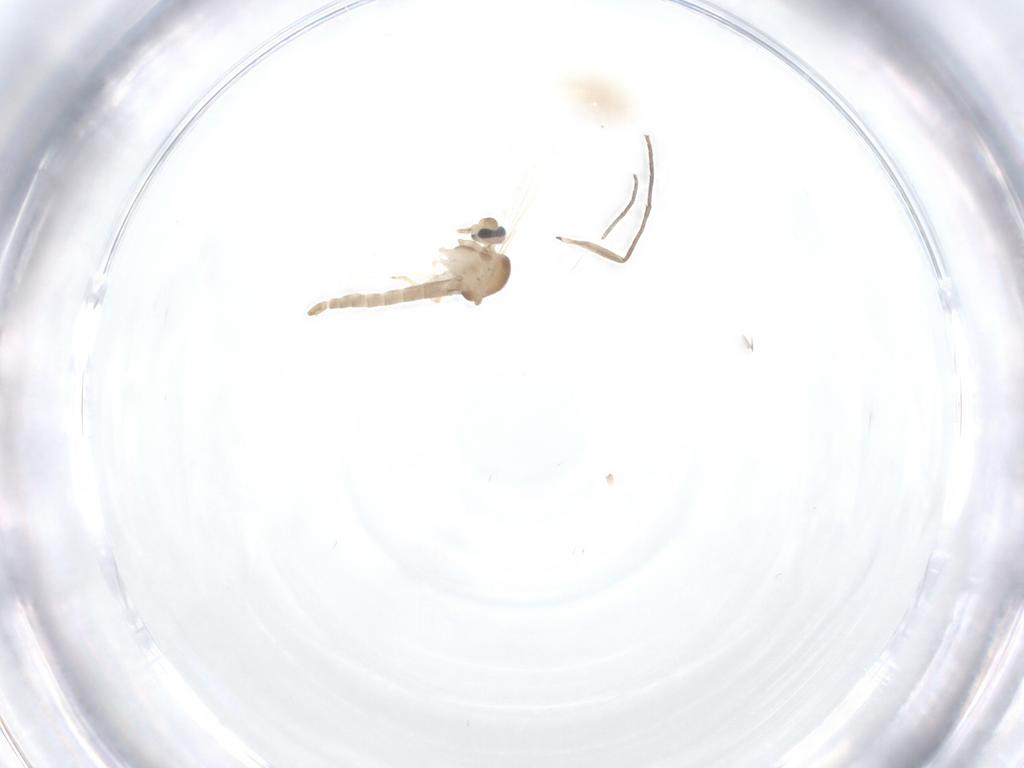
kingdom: Animalia
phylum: Arthropoda
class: Insecta
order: Diptera
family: Ceratopogonidae
